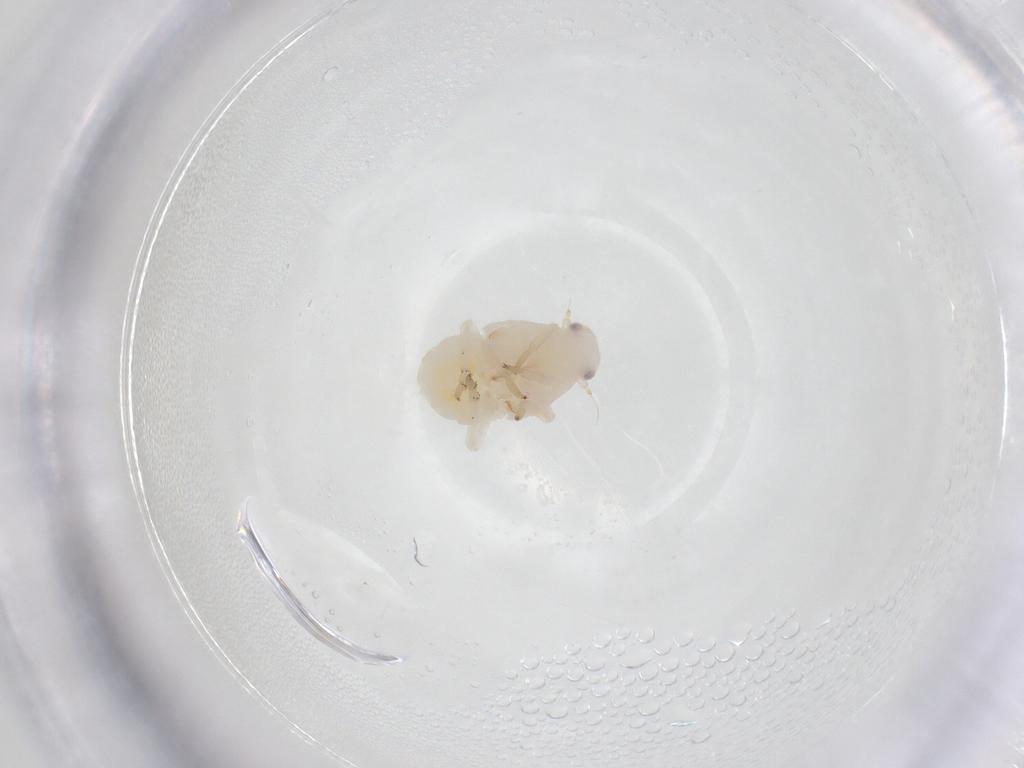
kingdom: Animalia
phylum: Arthropoda
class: Insecta
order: Hemiptera
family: Flatidae
